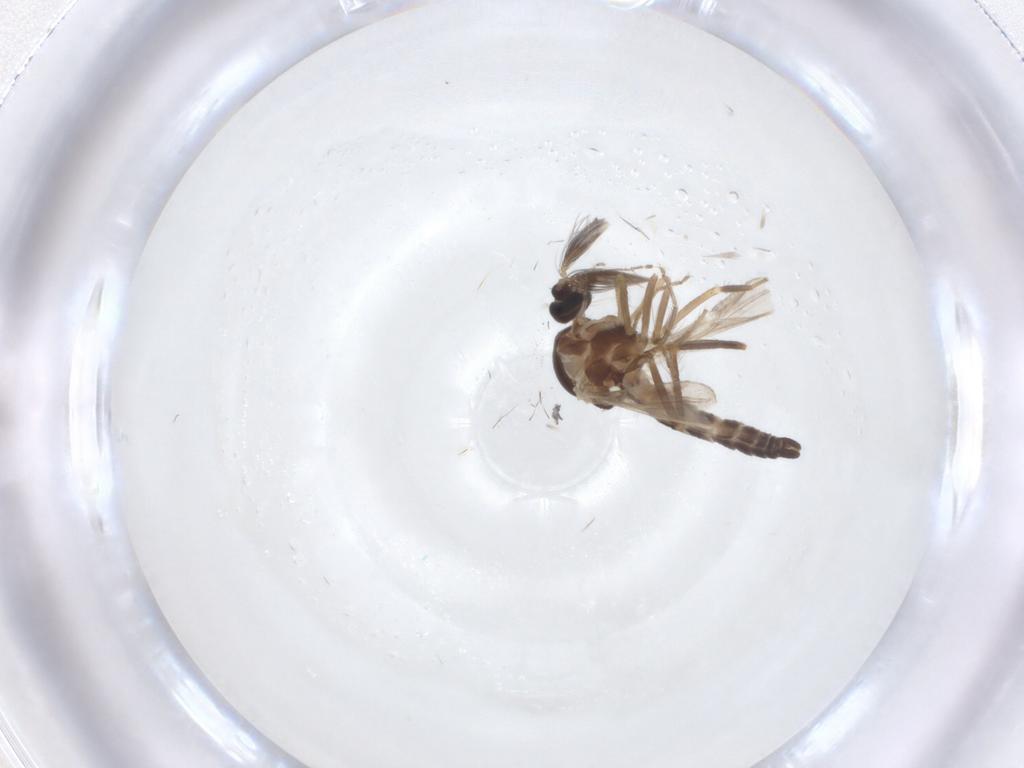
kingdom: Animalia
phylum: Arthropoda
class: Insecta
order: Diptera
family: Ceratopogonidae
